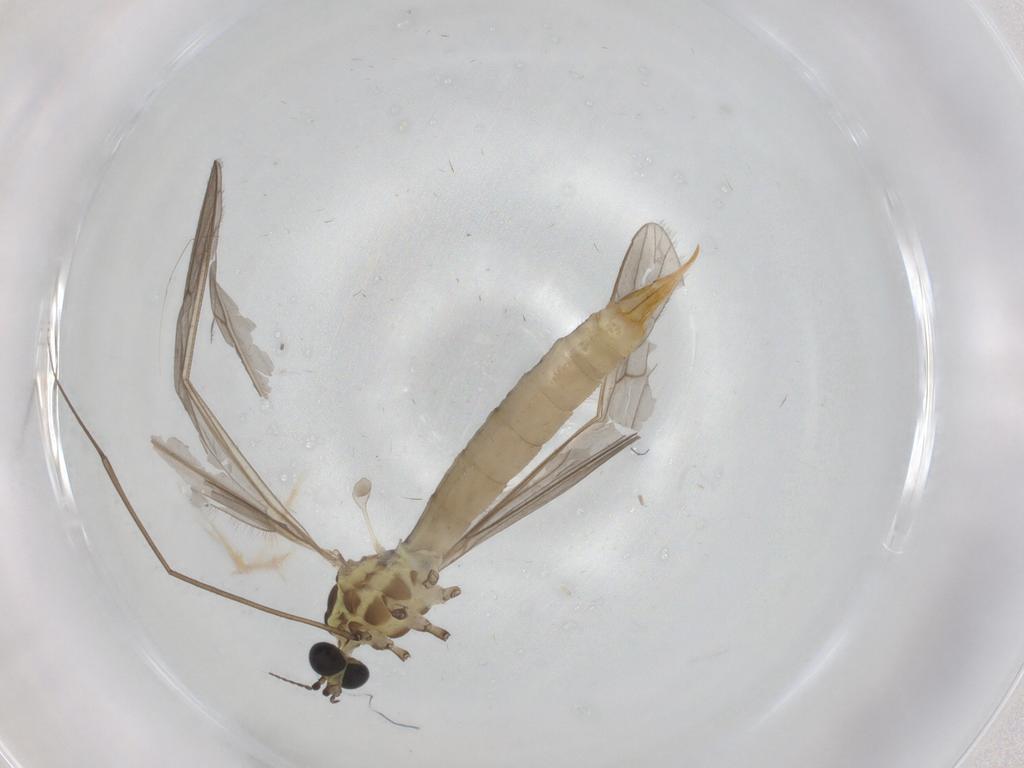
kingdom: Animalia
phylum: Arthropoda
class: Insecta
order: Diptera
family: Limoniidae
